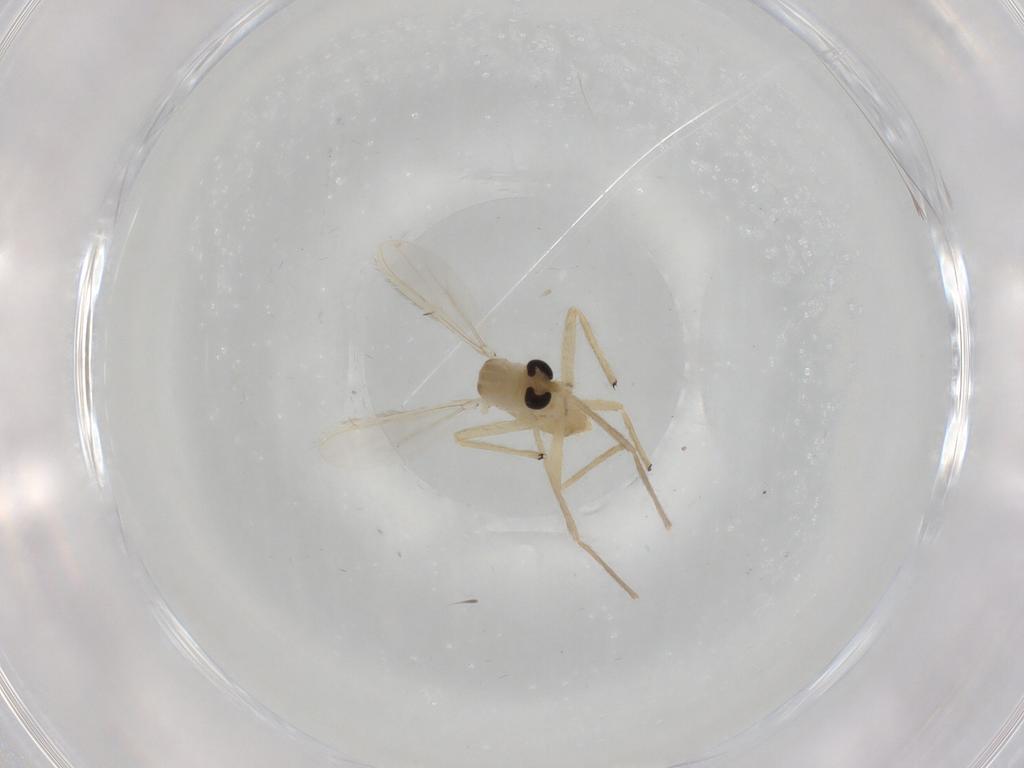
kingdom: Animalia
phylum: Arthropoda
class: Insecta
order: Diptera
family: Chironomidae
